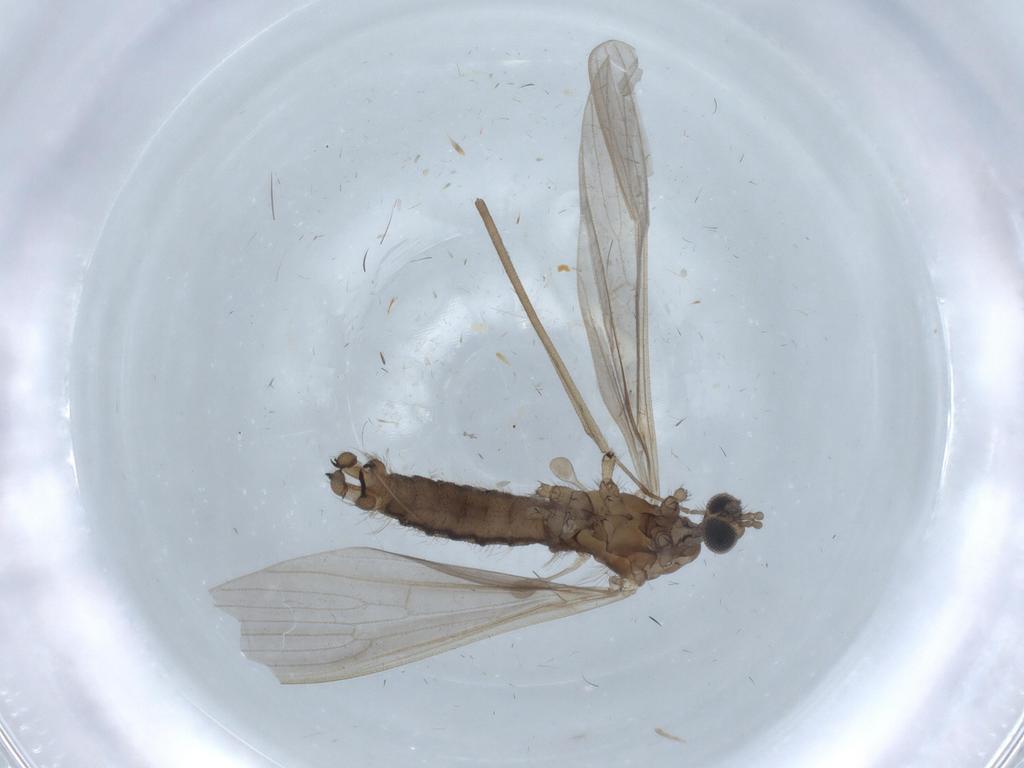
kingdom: Animalia
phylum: Arthropoda
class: Insecta
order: Diptera
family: Limoniidae
